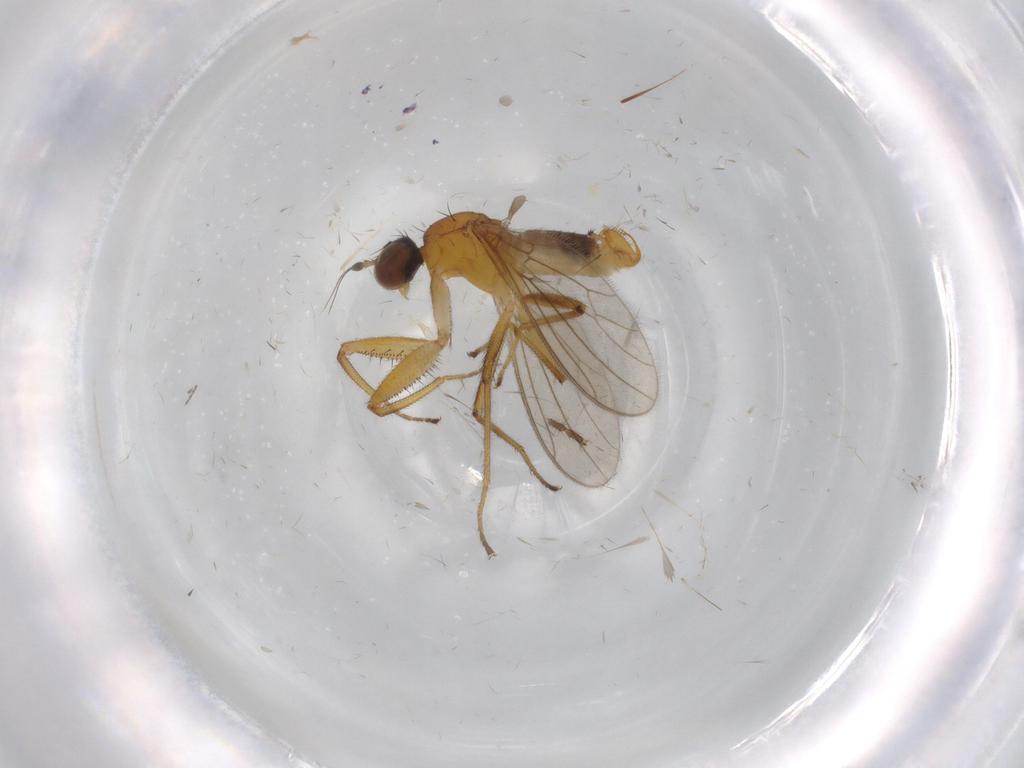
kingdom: Animalia
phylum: Arthropoda
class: Insecta
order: Diptera
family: Empididae
